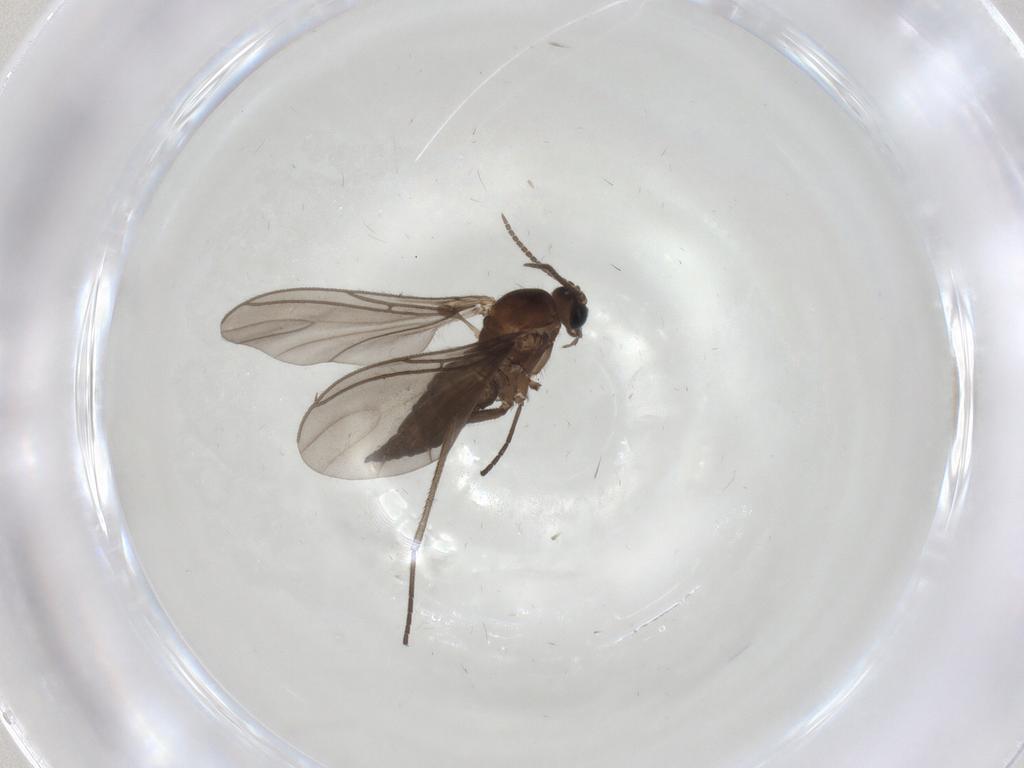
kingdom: Animalia
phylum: Arthropoda
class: Insecta
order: Diptera
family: Sciaridae
